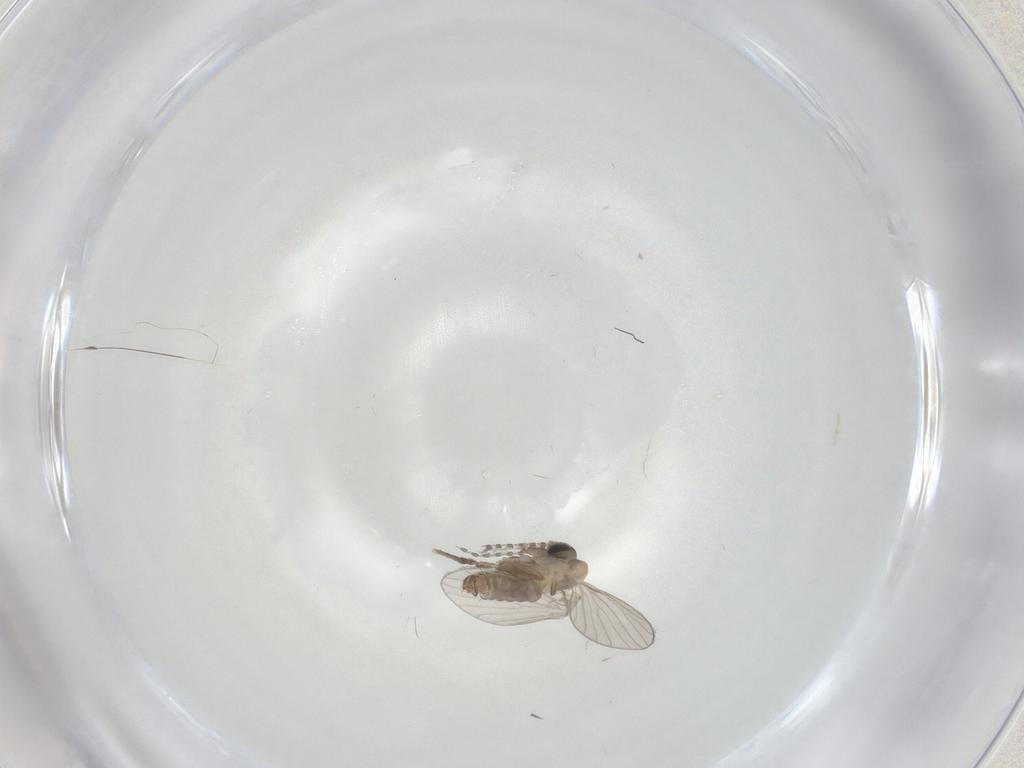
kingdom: Animalia
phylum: Arthropoda
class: Insecta
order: Diptera
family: Psychodidae
